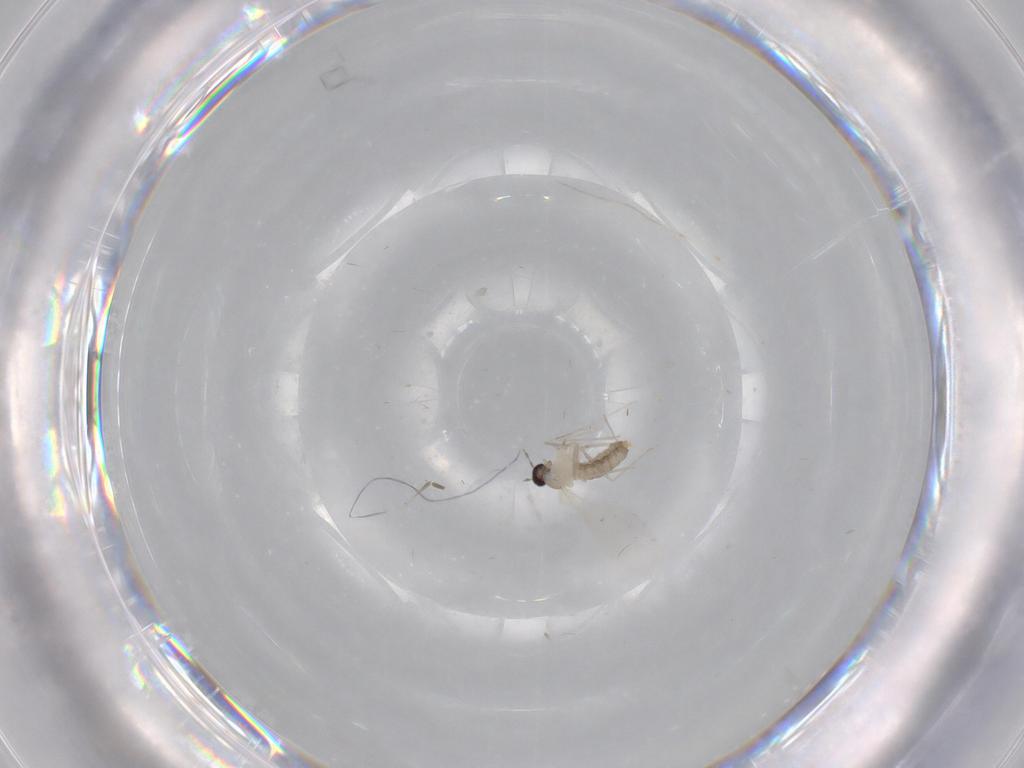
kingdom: Animalia
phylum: Arthropoda
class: Insecta
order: Diptera
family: Cecidomyiidae
